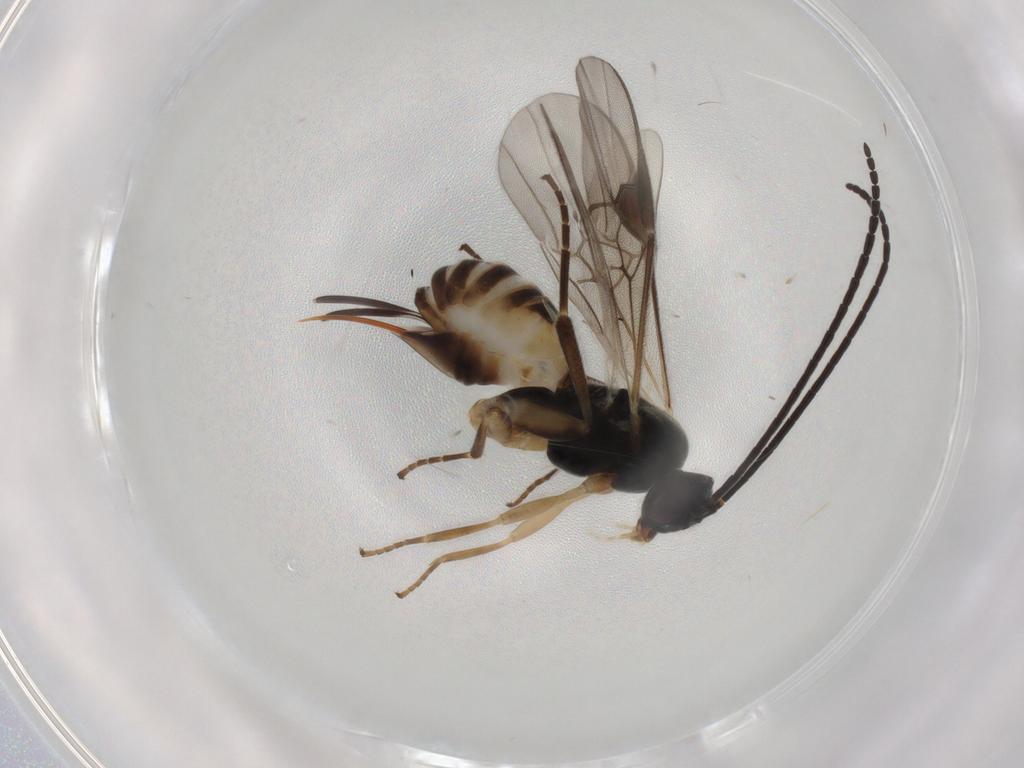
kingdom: Animalia
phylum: Arthropoda
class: Insecta
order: Hymenoptera
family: Braconidae
